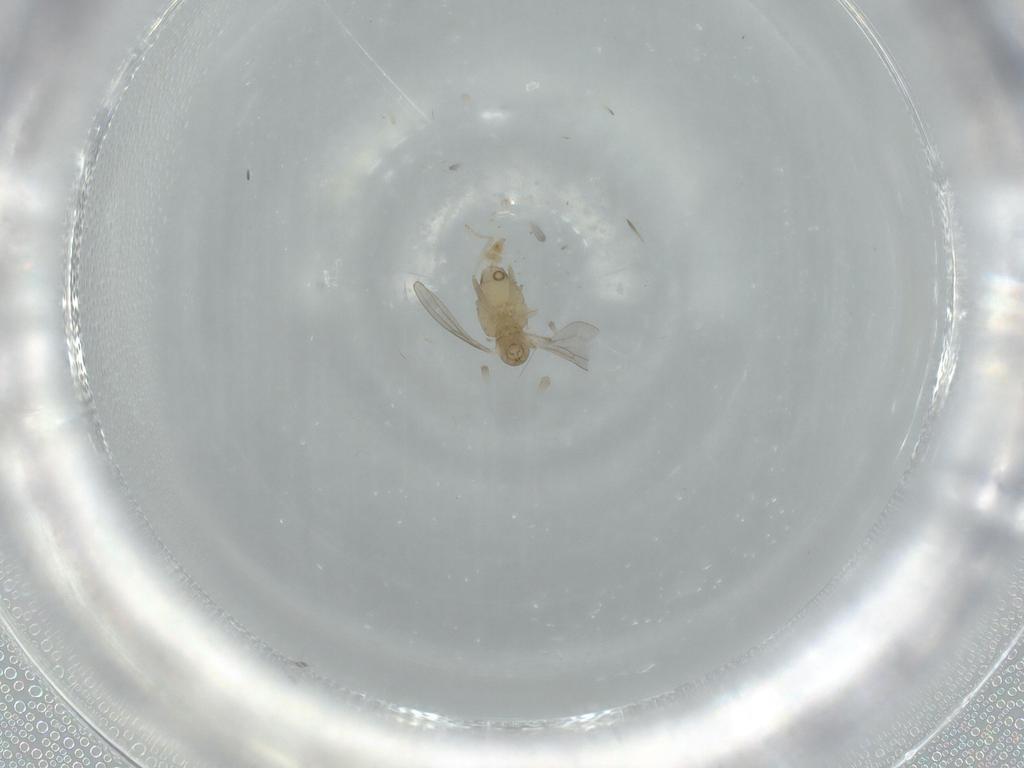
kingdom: Animalia
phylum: Arthropoda
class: Insecta
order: Diptera
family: Cecidomyiidae
